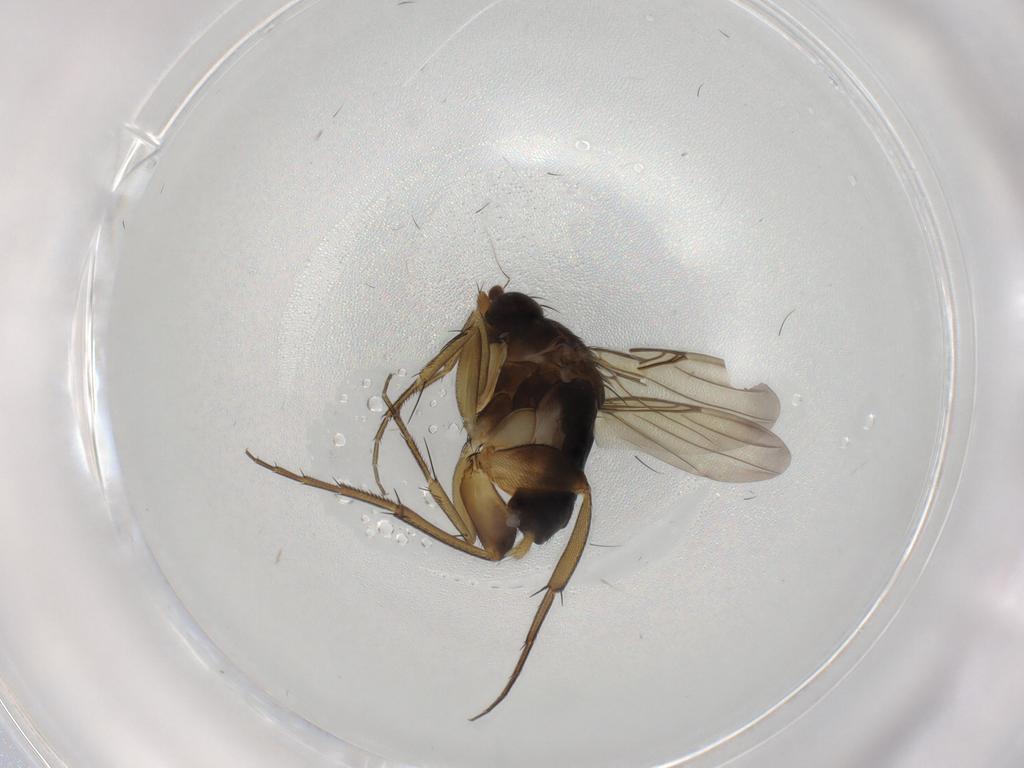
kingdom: Animalia
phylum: Arthropoda
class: Insecta
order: Diptera
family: Phoridae
